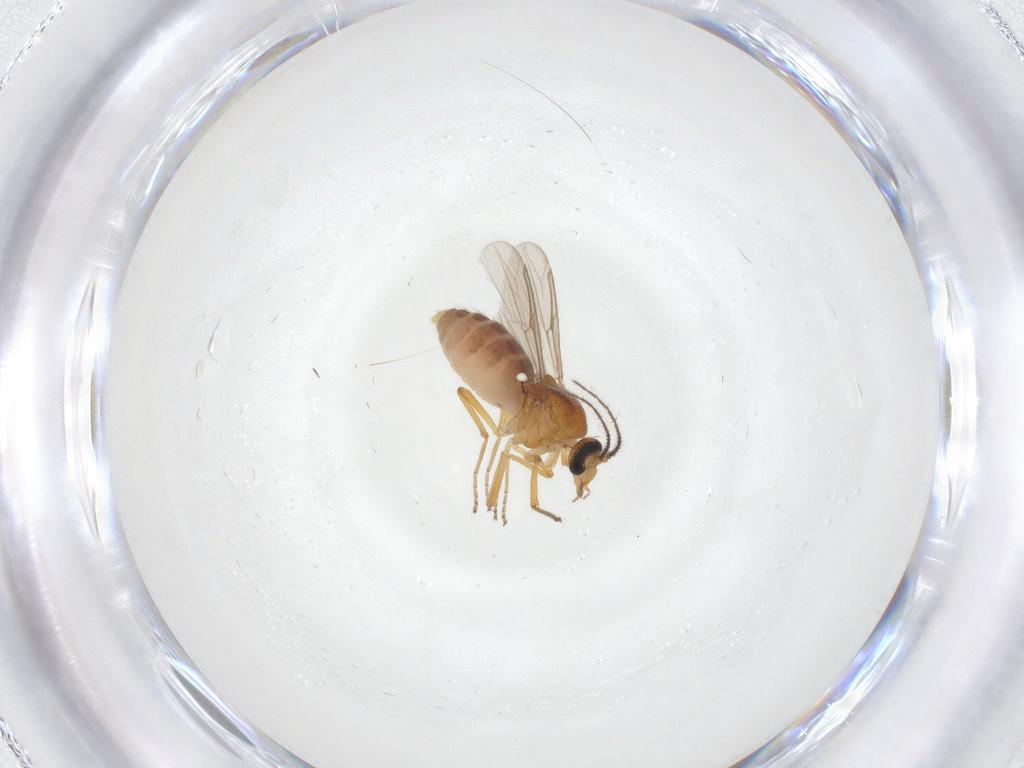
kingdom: Animalia
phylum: Arthropoda
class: Insecta
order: Diptera
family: Ceratopogonidae
